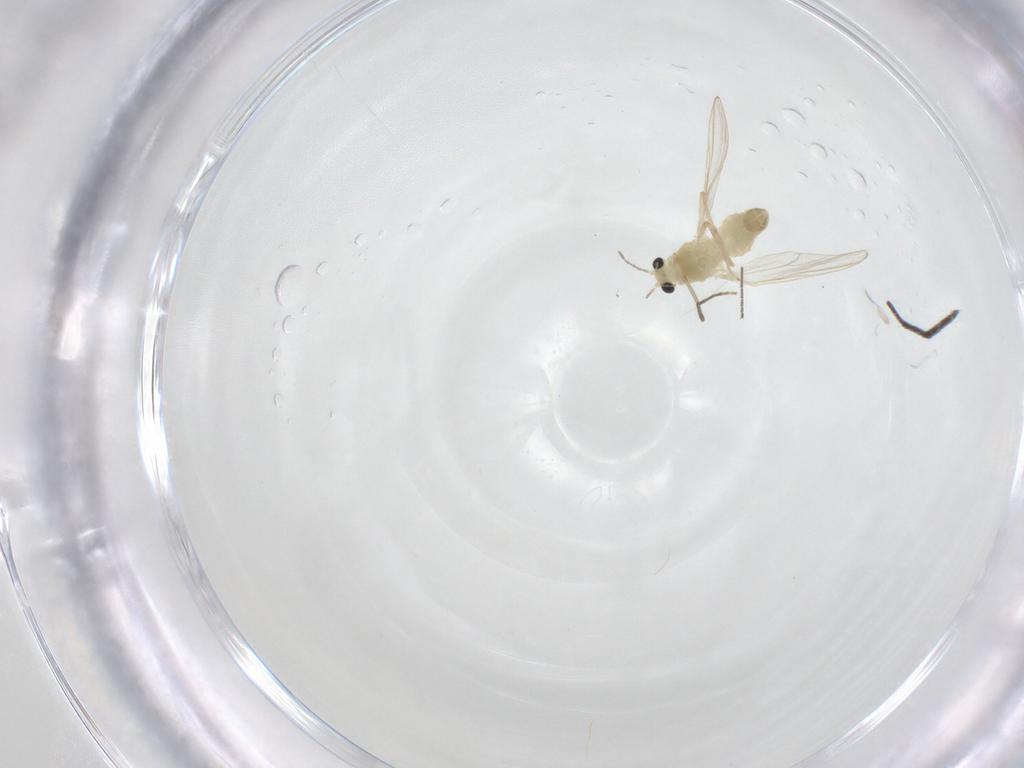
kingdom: Animalia
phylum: Arthropoda
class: Insecta
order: Diptera
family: Chironomidae
